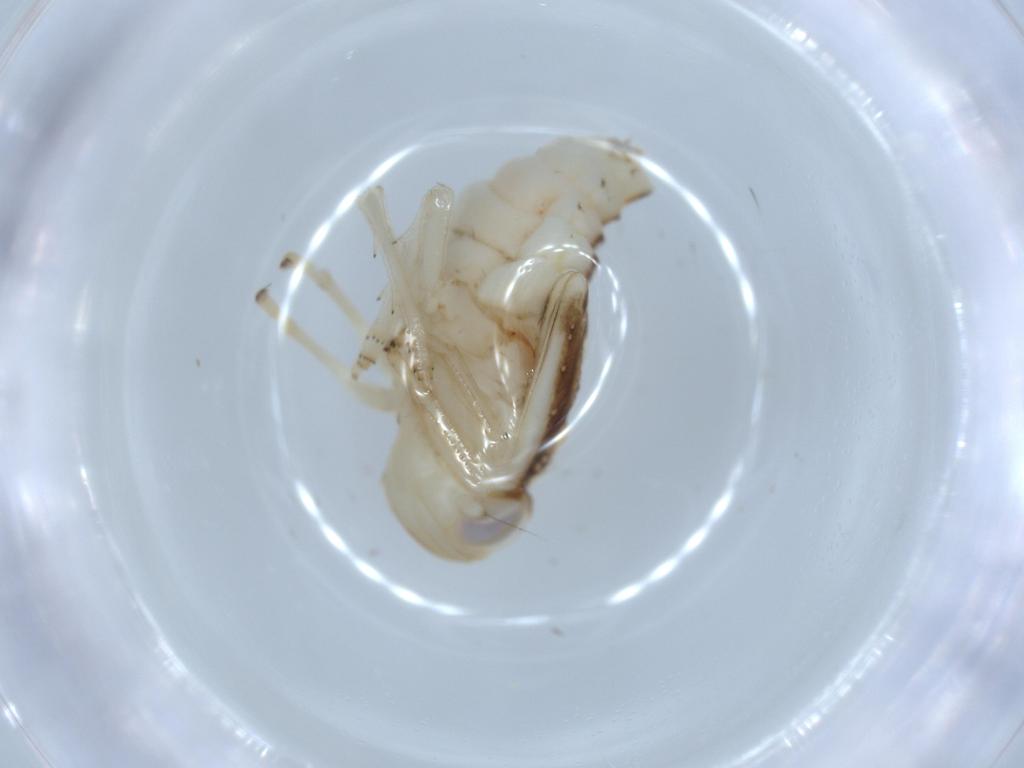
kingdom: Animalia
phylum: Arthropoda
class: Insecta
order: Hemiptera
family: Nogodinidae
